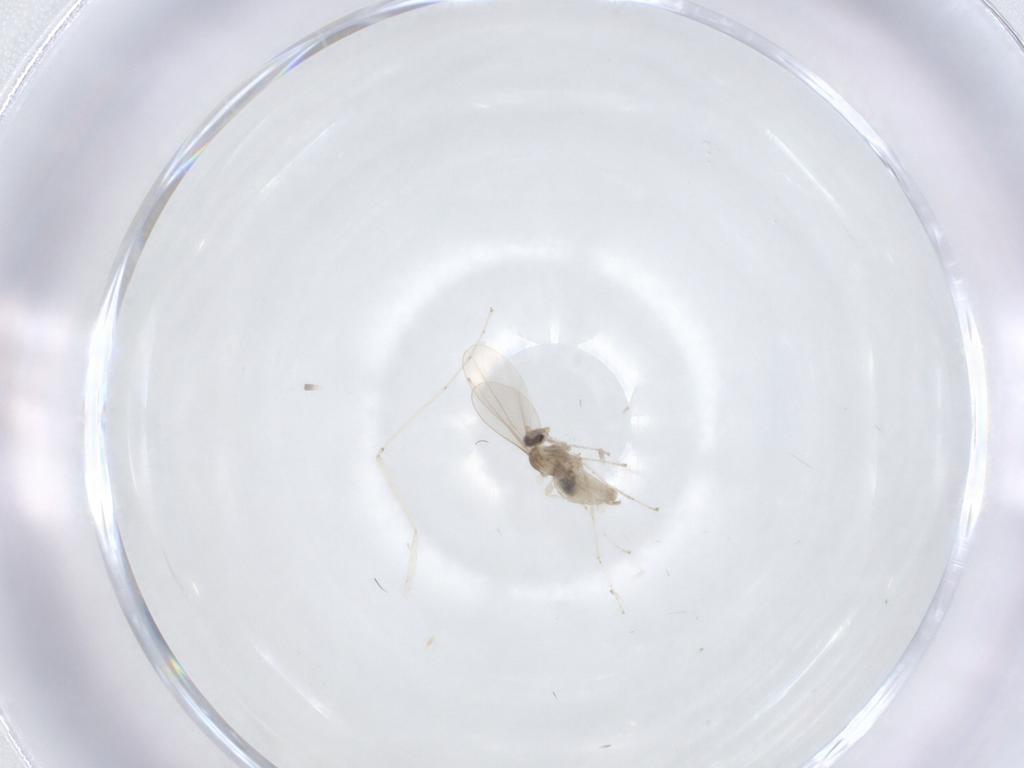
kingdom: Animalia
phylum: Arthropoda
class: Insecta
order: Diptera
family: Cecidomyiidae
